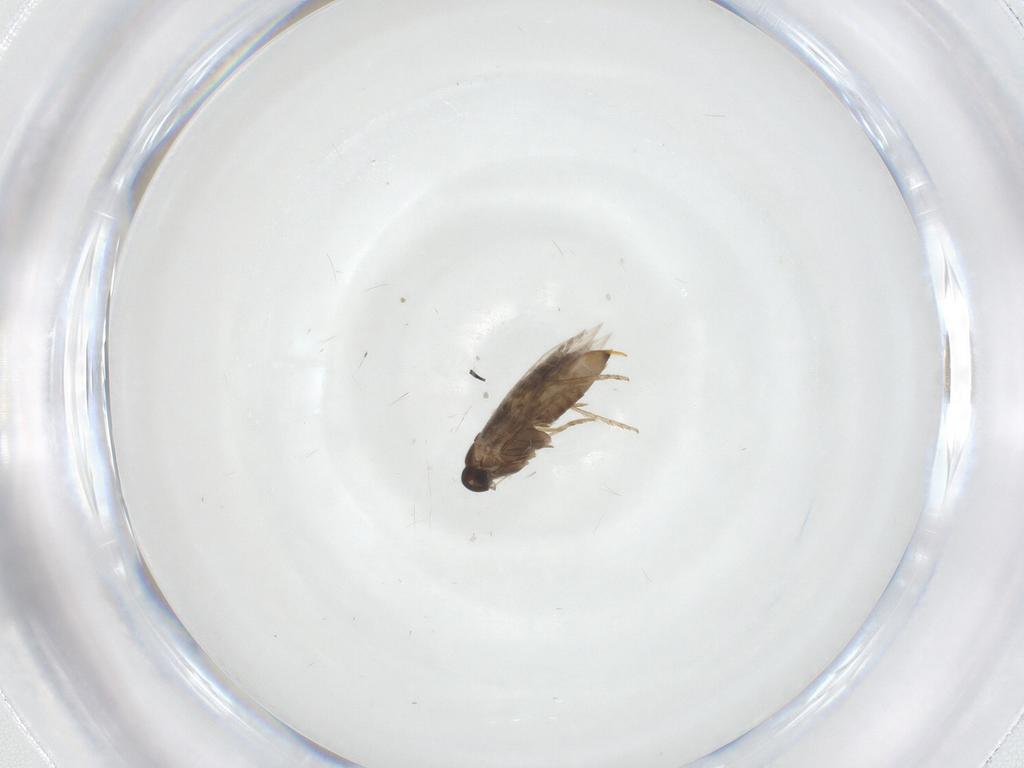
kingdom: Animalia
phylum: Arthropoda
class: Insecta
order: Lepidoptera
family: Heliozelidae
